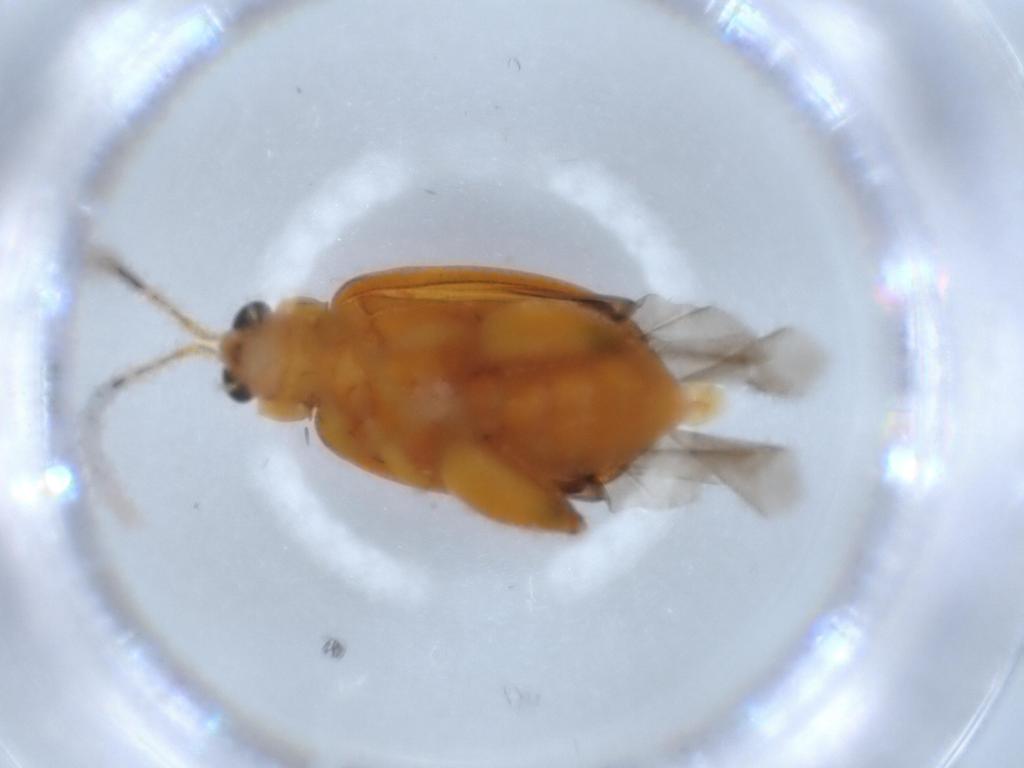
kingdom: Animalia
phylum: Arthropoda
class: Insecta
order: Coleoptera
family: Chrysomelidae
